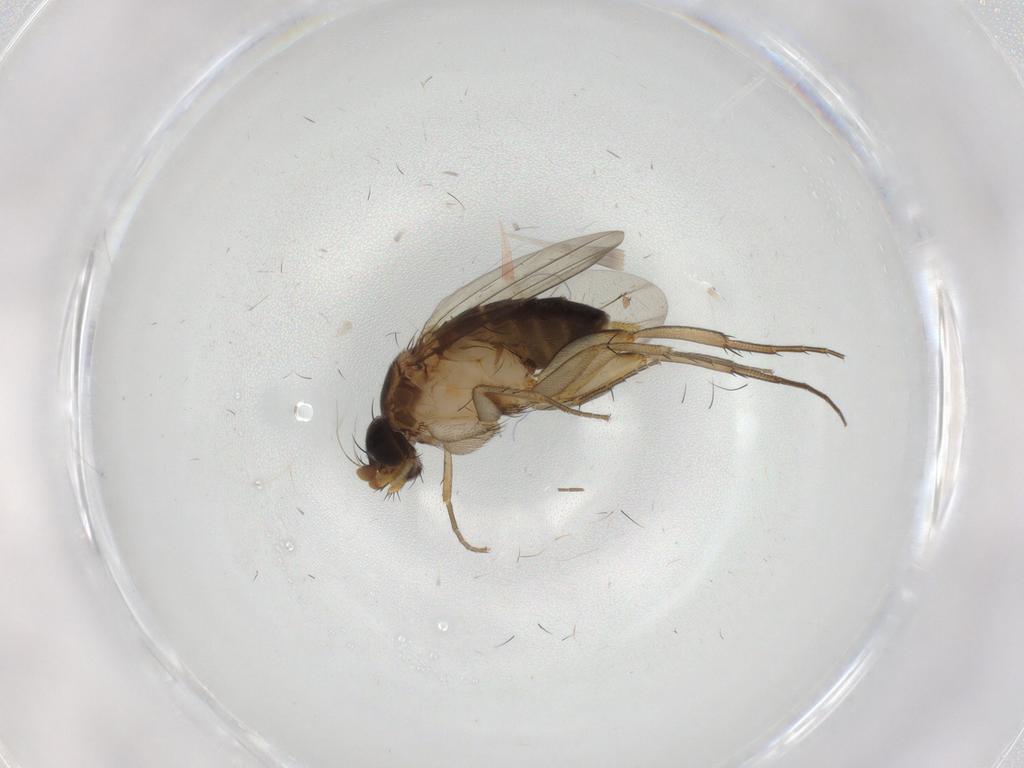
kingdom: Animalia
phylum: Arthropoda
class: Insecta
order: Diptera
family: Phoridae
